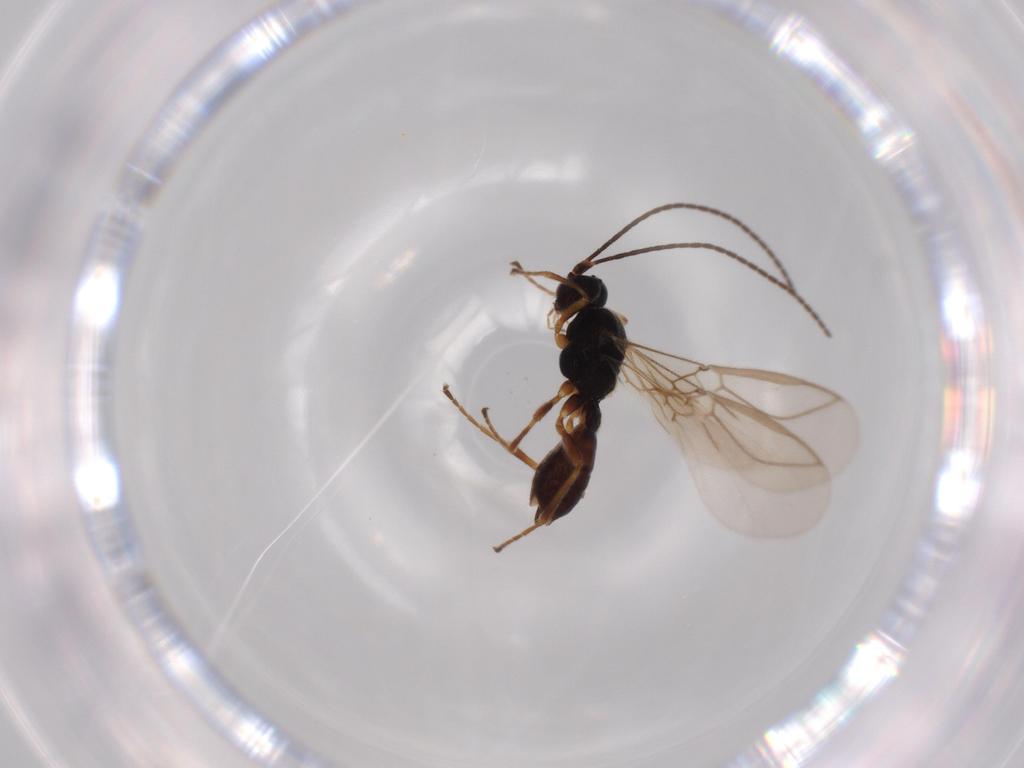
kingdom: Animalia
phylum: Arthropoda
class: Insecta
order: Hymenoptera
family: Braconidae
